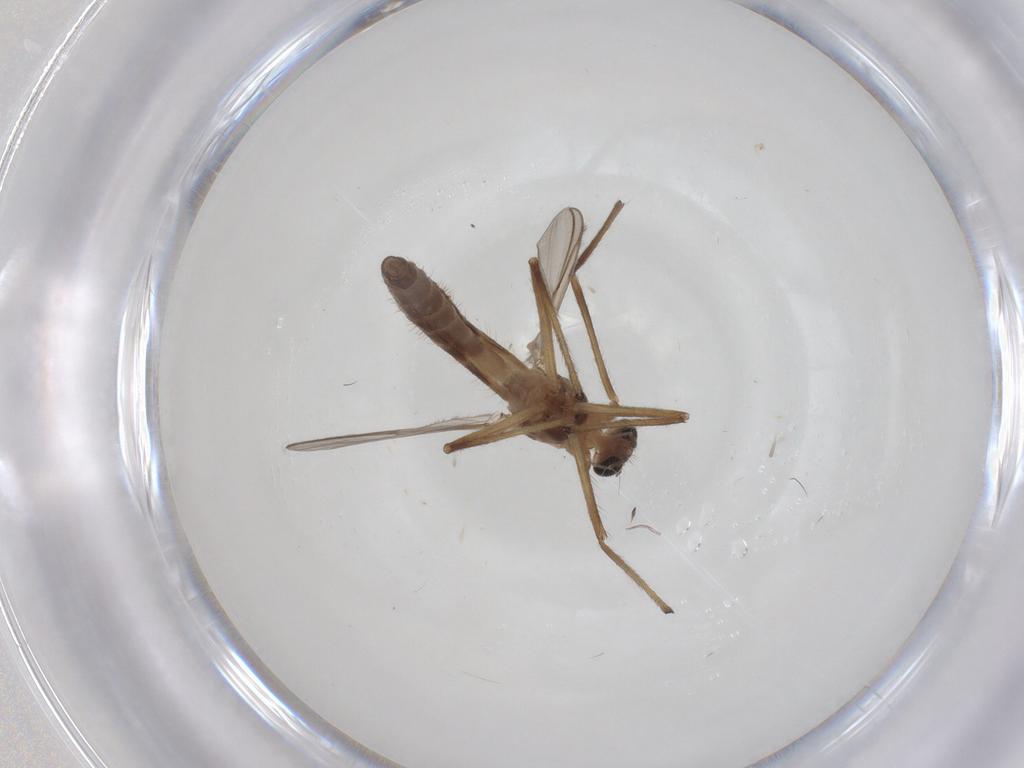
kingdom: Animalia
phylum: Arthropoda
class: Insecta
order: Diptera
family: Chironomidae
